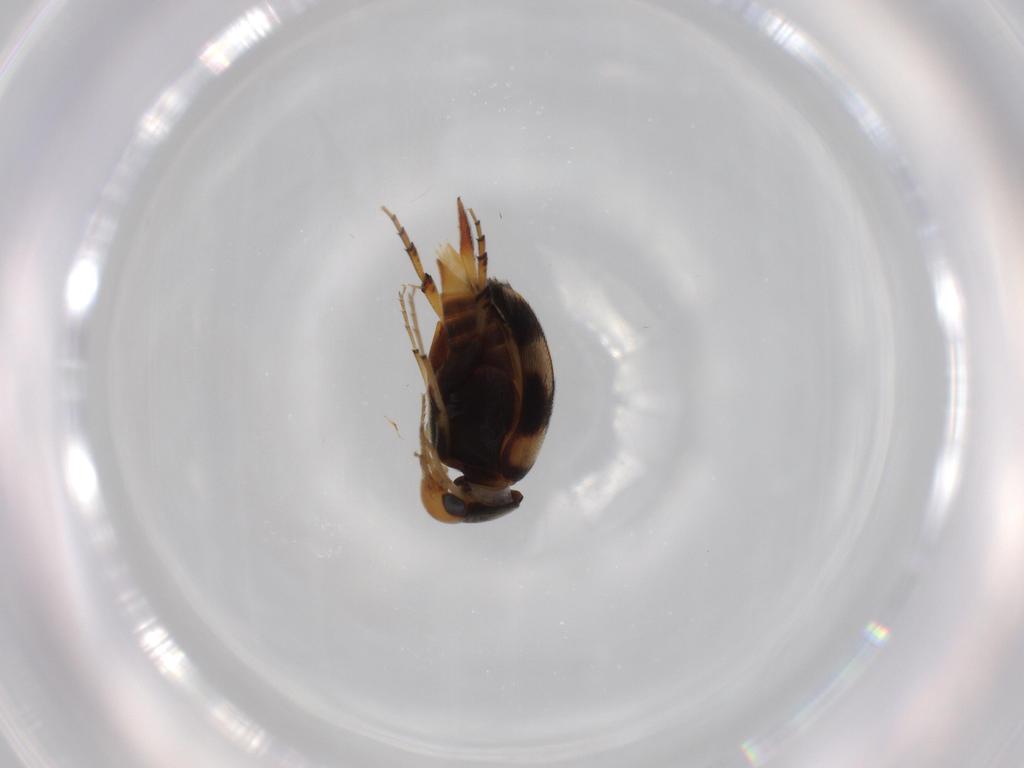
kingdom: Animalia
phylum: Arthropoda
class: Insecta
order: Coleoptera
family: Mordellidae
